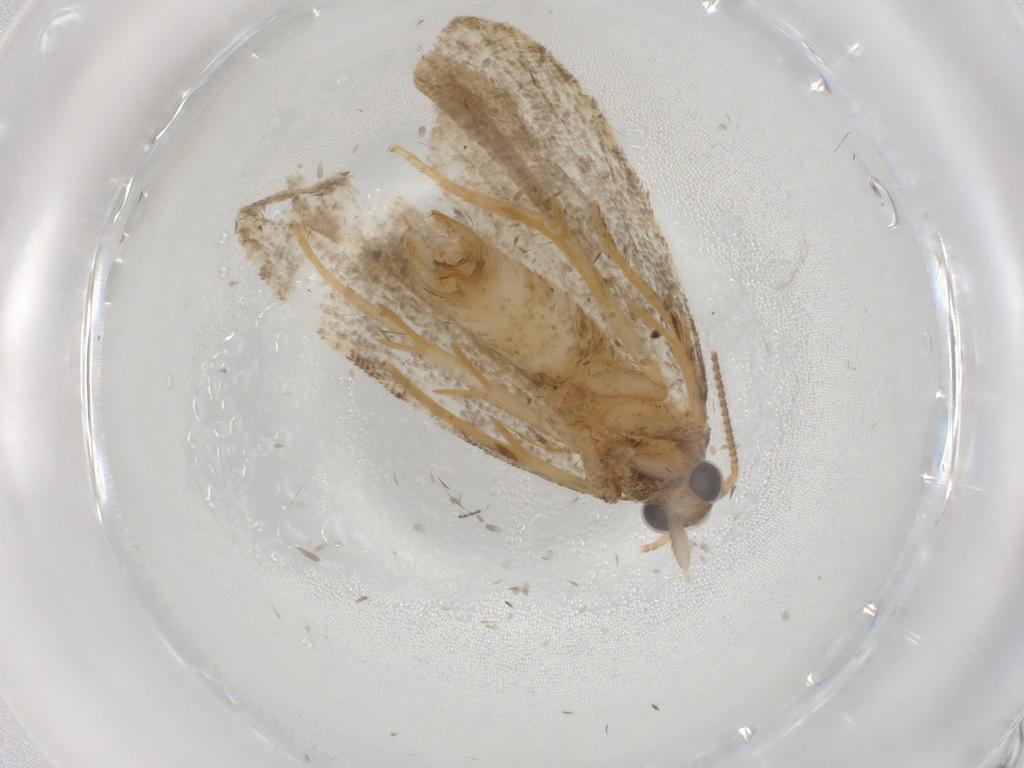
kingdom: Animalia
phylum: Arthropoda
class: Insecta
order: Lepidoptera
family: Tortricidae
